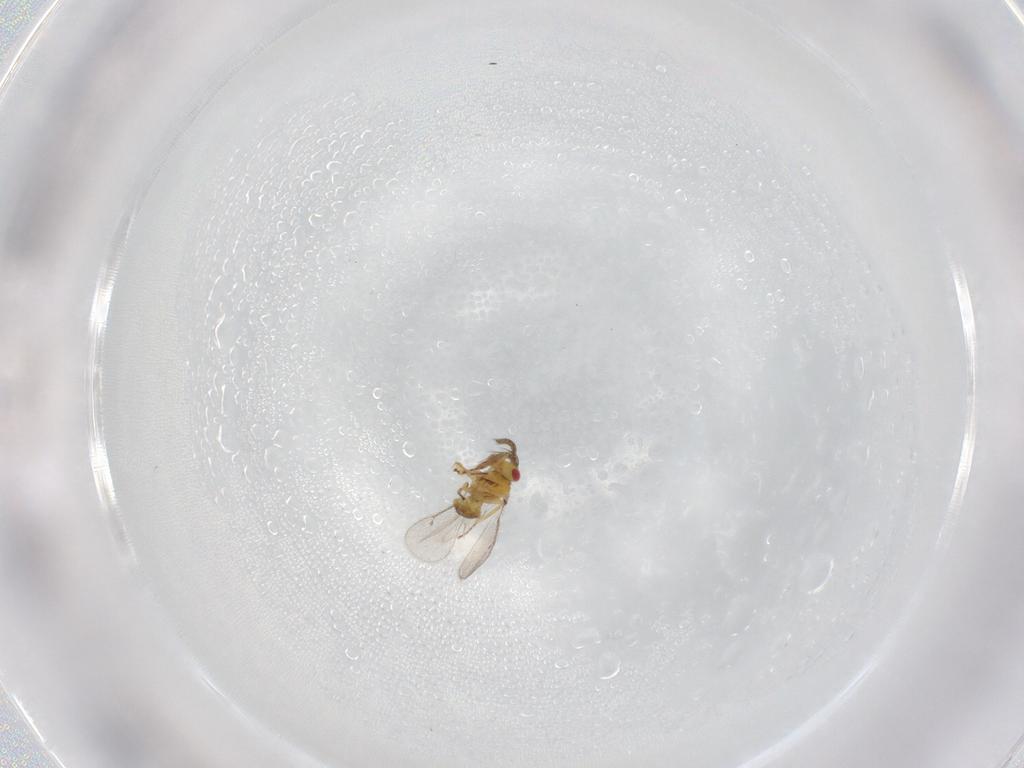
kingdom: Animalia
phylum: Arthropoda
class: Insecta
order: Hymenoptera
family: Eulophidae
